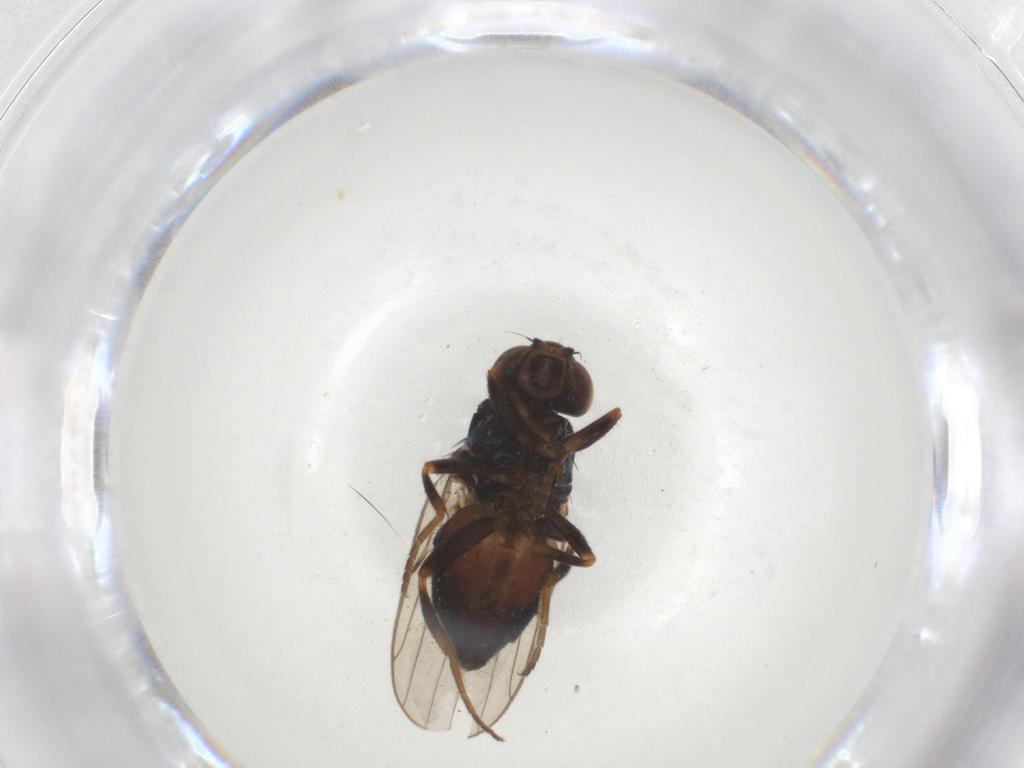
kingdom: Animalia
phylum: Arthropoda
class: Insecta
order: Diptera
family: Chloropidae
